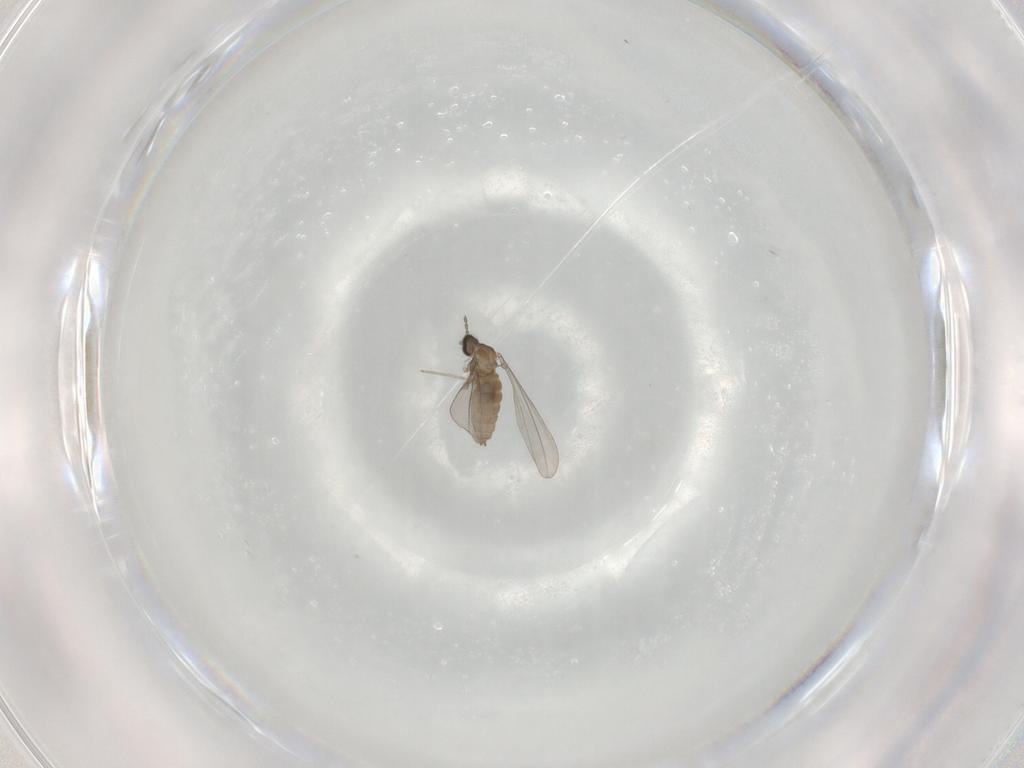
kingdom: Animalia
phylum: Arthropoda
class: Insecta
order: Diptera
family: Cecidomyiidae
